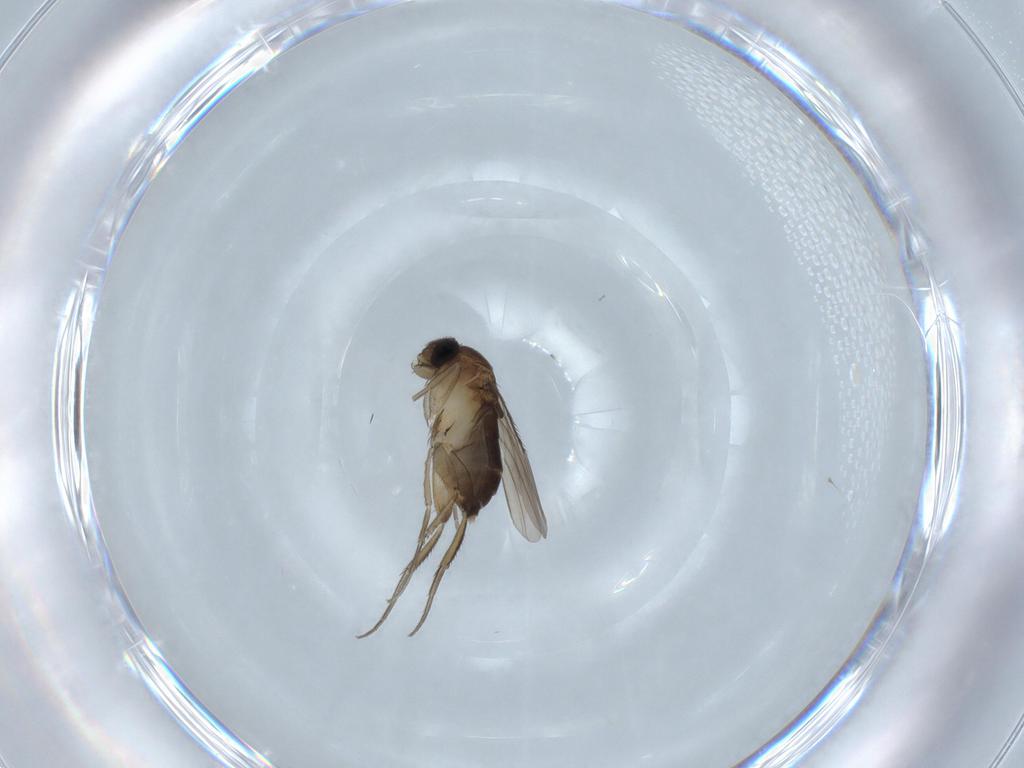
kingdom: Animalia
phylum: Arthropoda
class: Insecta
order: Diptera
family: Phoridae
